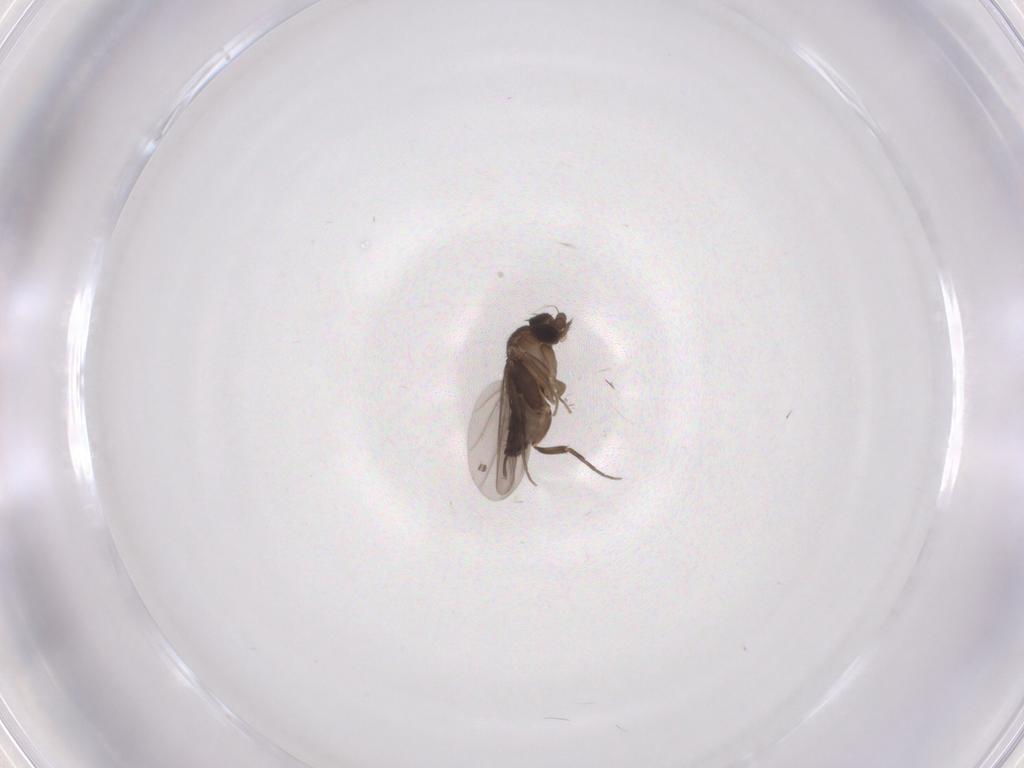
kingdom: Animalia
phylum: Arthropoda
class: Insecta
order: Diptera
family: Phoridae
